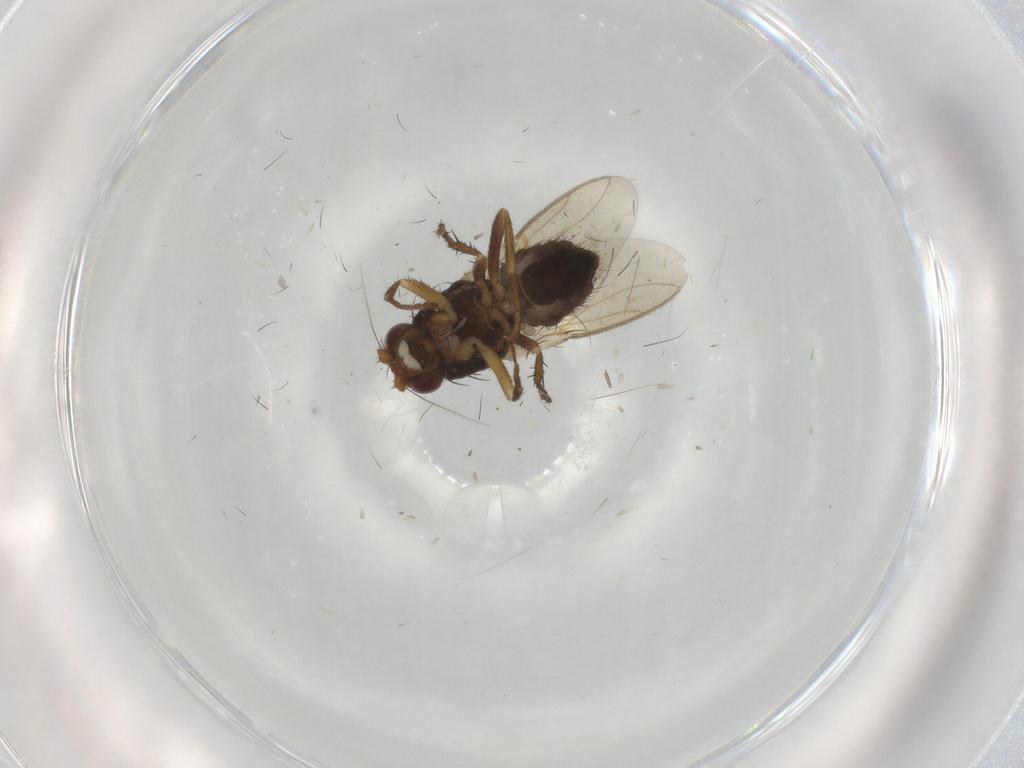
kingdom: Animalia
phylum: Arthropoda
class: Insecta
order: Diptera
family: Sphaeroceridae
